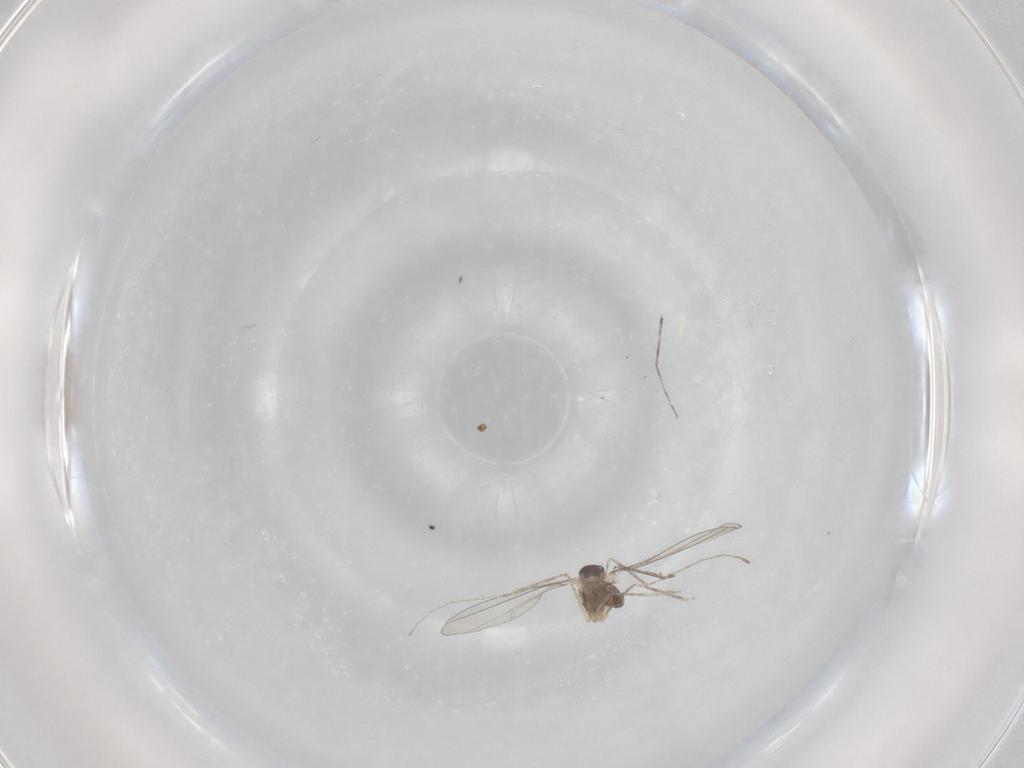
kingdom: Animalia
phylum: Arthropoda
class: Insecta
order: Diptera
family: Cecidomyiidae
